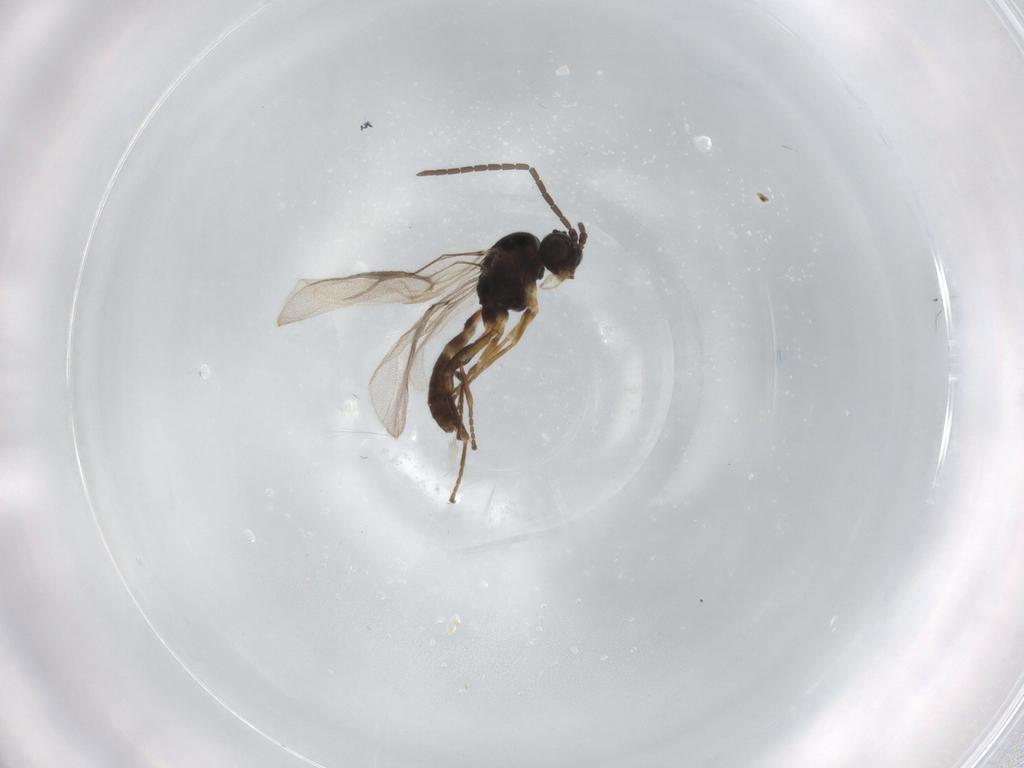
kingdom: Animalia
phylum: Arthropoda
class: Insecta
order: Hymenoptera
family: Braconidae
